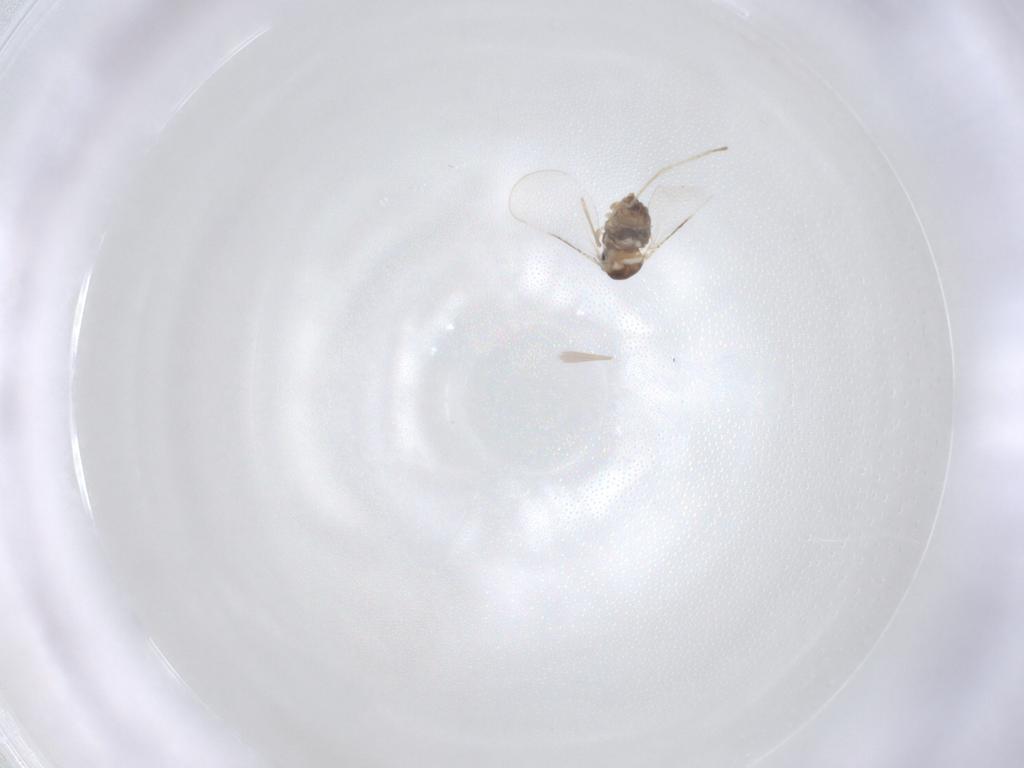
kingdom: Animalia
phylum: Arthropoda
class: Insecta
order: Diptera
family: Cecidomyiidae
